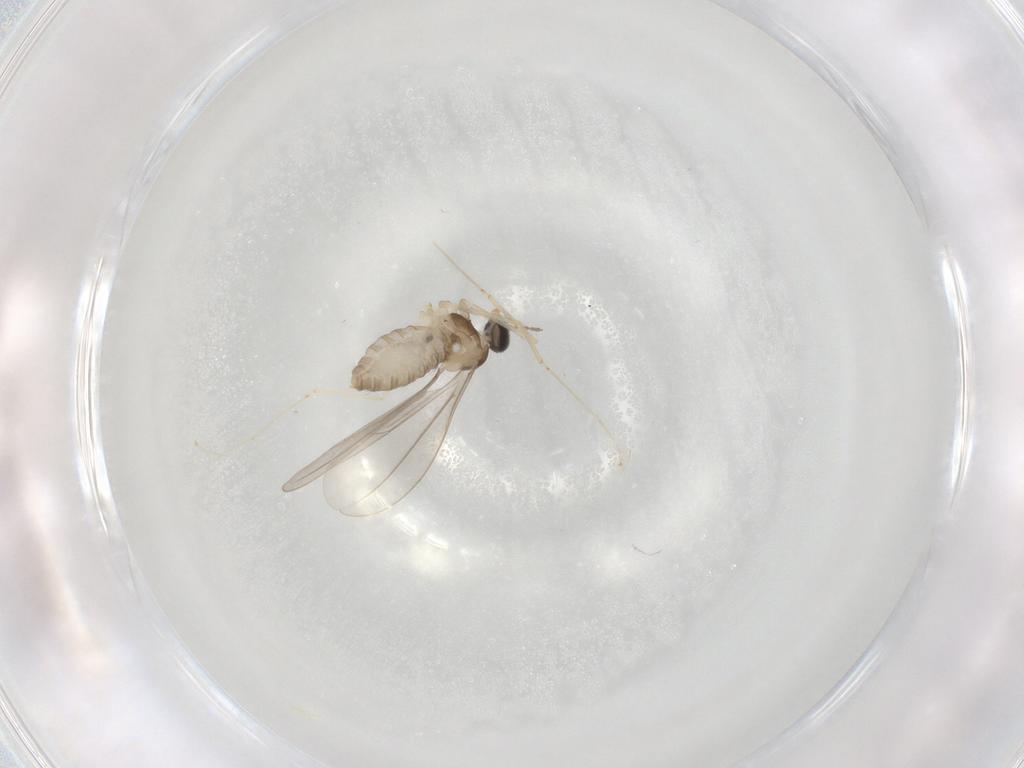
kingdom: Animalia
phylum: Arthropoda
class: Insecta
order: Diptera
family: Cecidomyiidae
